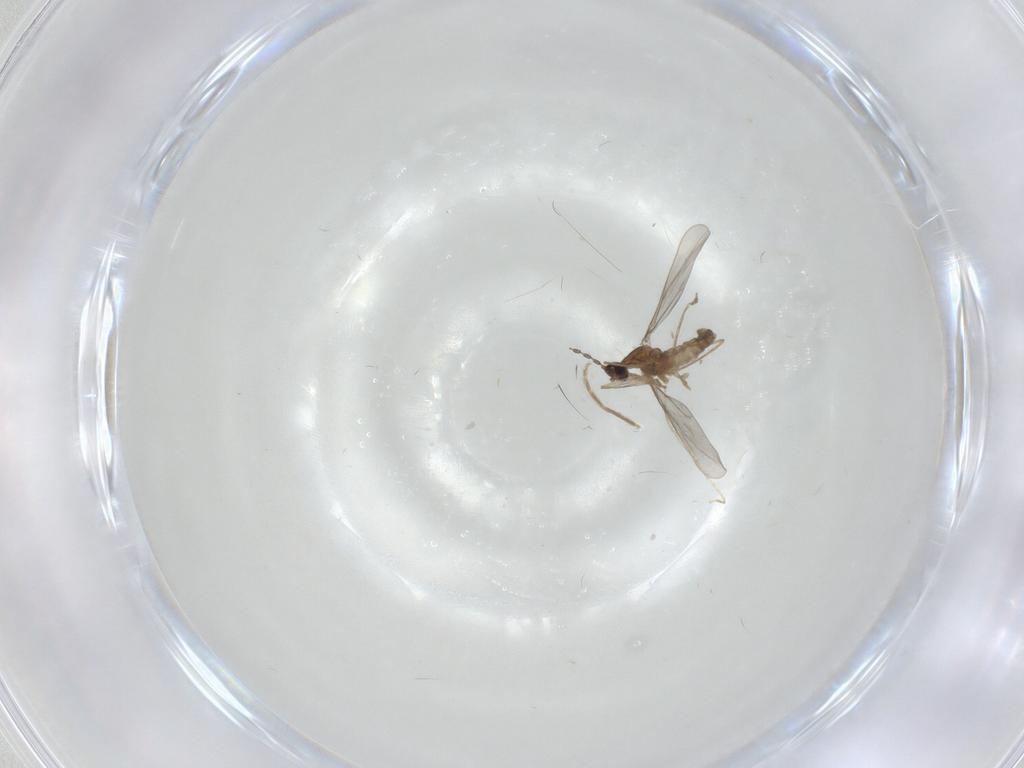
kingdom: Animalia
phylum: Arthropoda
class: Insecta
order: Diptera
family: Cecidomyiidae
